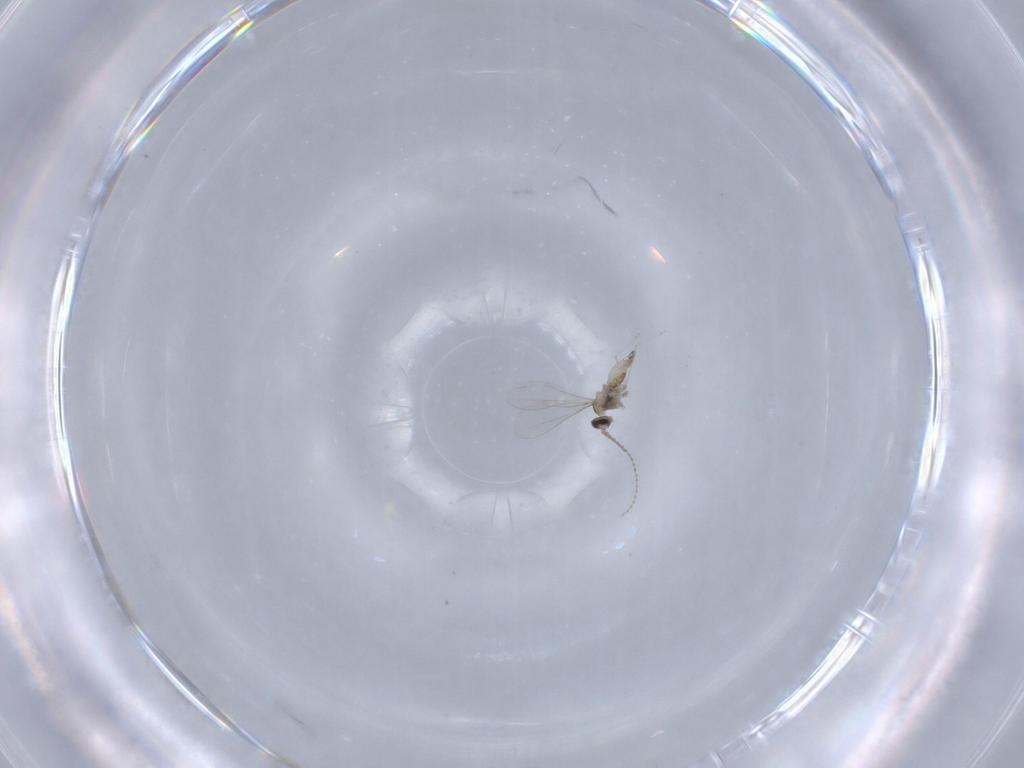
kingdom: Animalia
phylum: Arthropoda
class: Insecta
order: Diptera
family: Cecidomyiidae
